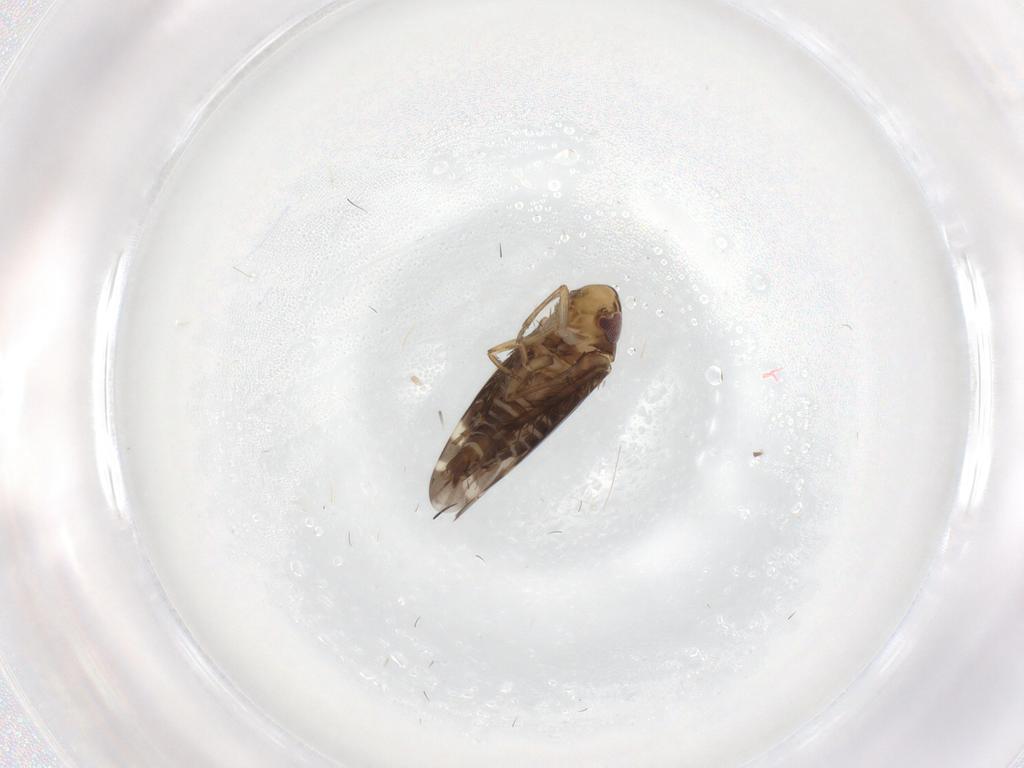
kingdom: Animalia
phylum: Arthropoda
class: Insecta
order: Hemiptera
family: Cicadellidae
